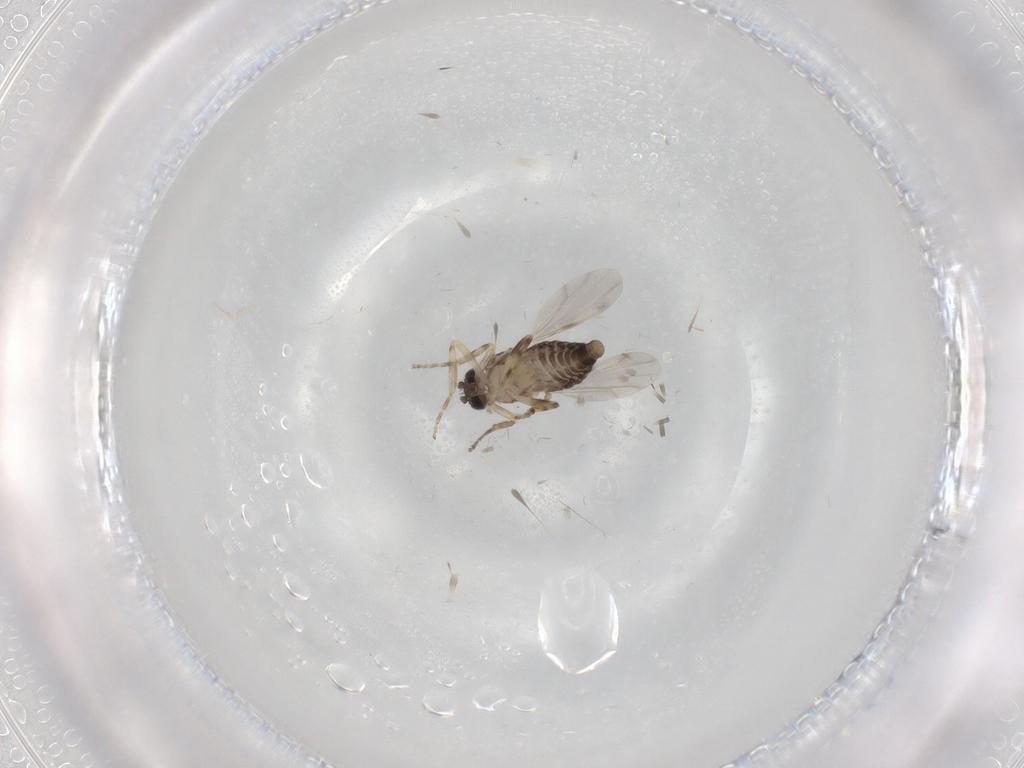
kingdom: Animalia
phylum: Arthropoda
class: Insecta
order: Diptera
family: Ceratopogonidae
